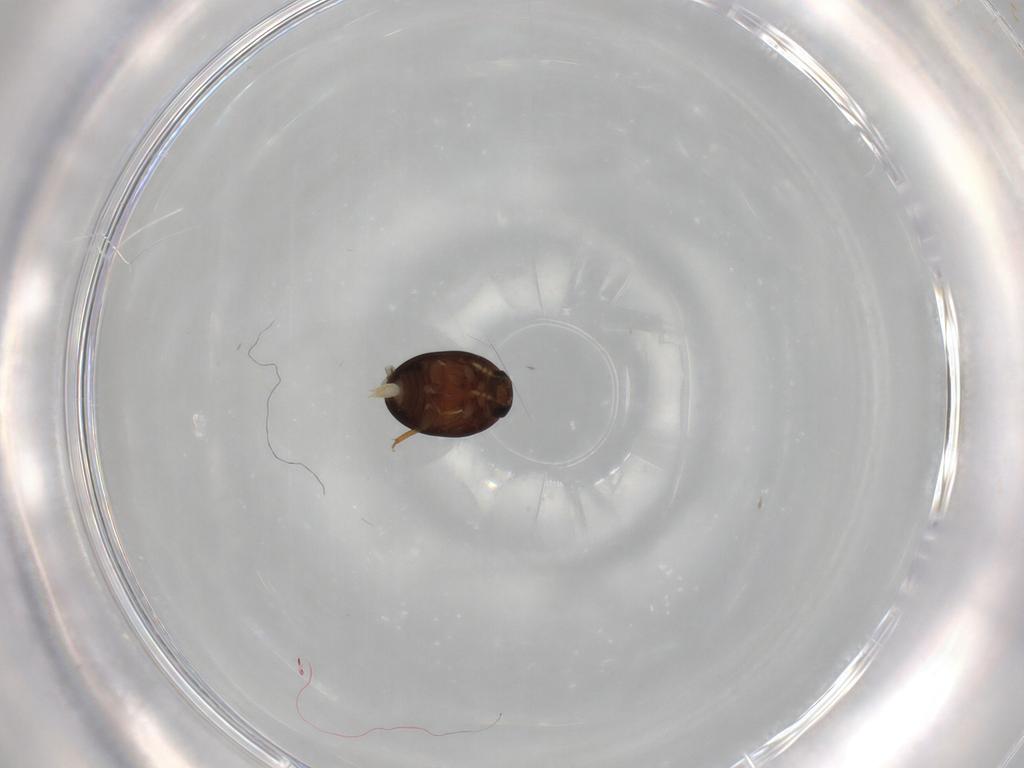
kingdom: Animalia
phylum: Arthropoda
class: Insecta
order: Coleoptera
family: Phalacridae
